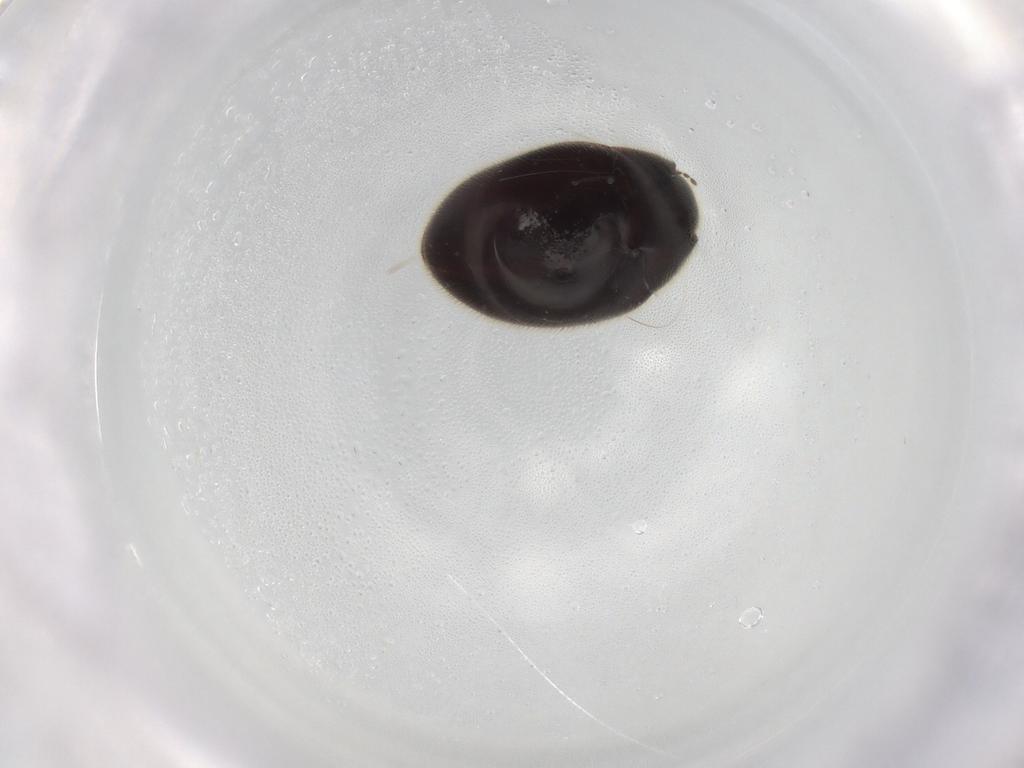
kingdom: Animalia
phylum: Arthropoda
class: Insecta
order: Coleoptera
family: Limnichidae
